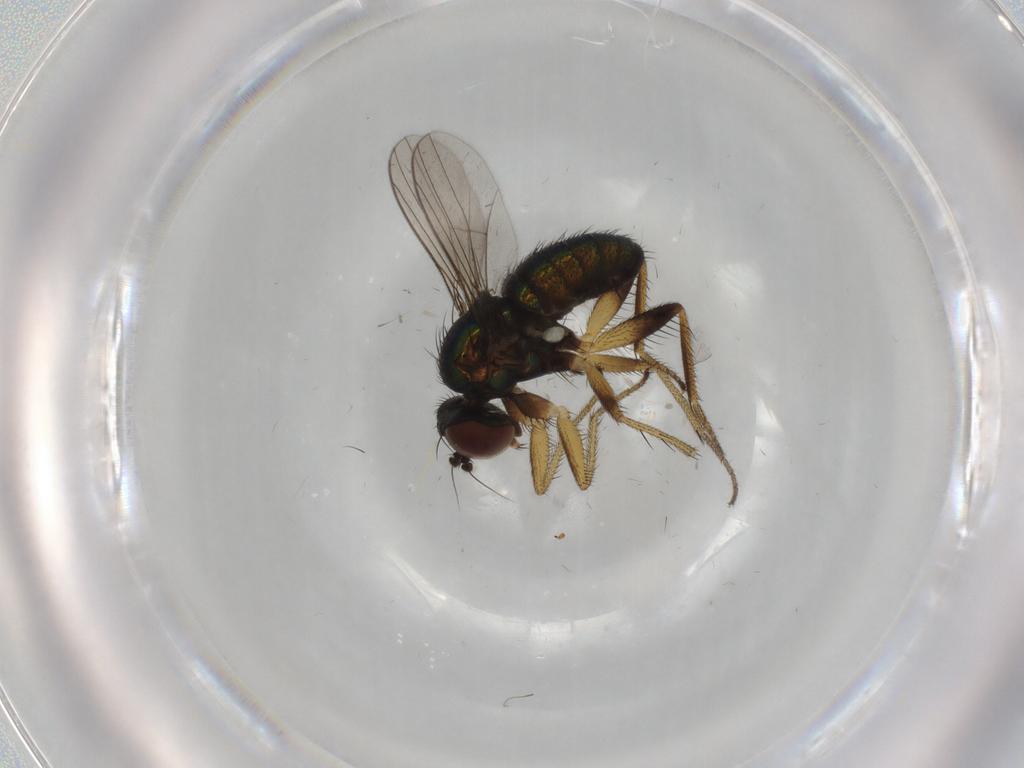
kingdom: Animalia
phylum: Arthropoda
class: Insecta
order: Diptera
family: Dolichopodidae
